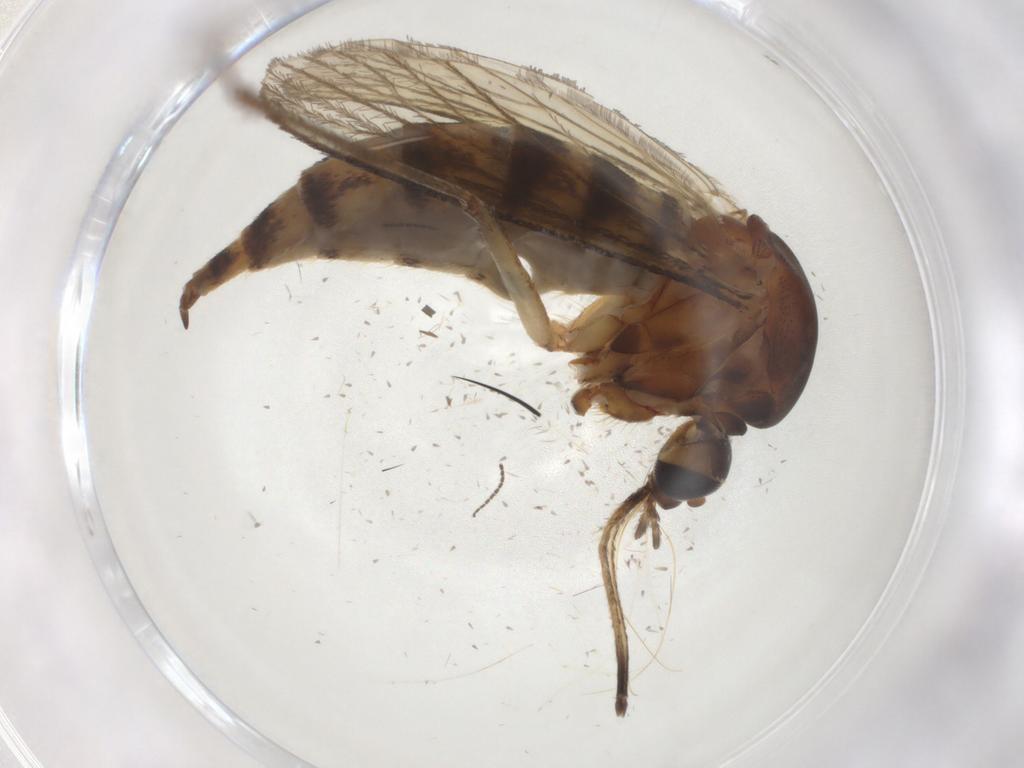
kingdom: Animalia
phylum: Arthropoda
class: Insecta
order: Diptera
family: Culicidae
